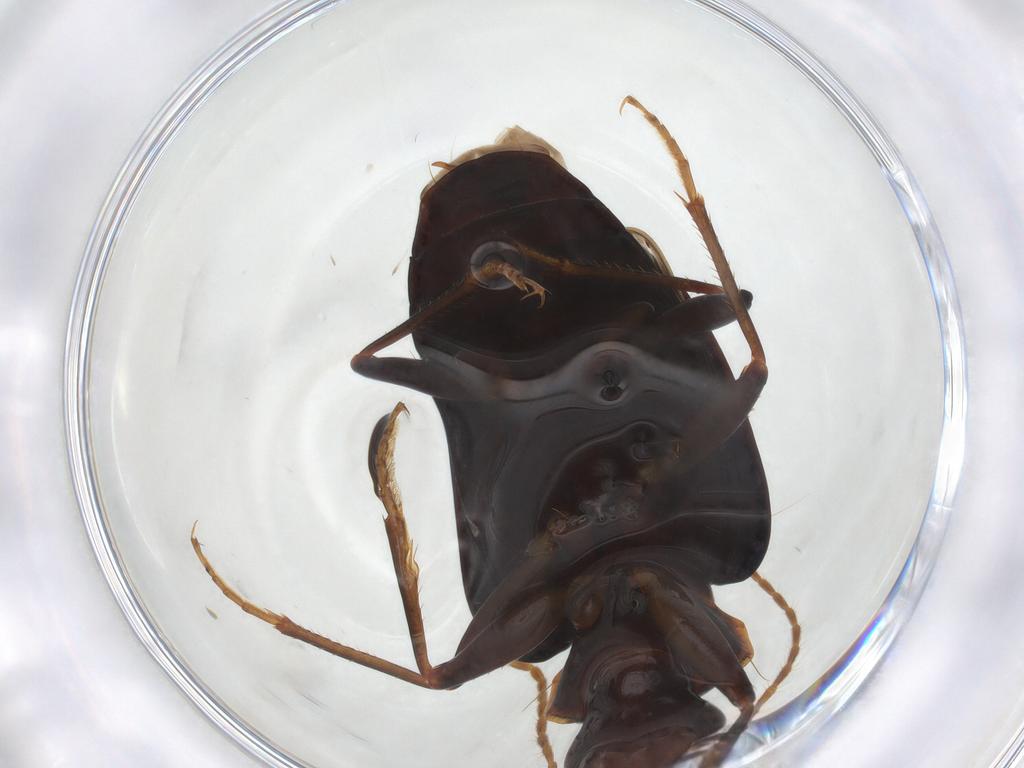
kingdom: Animalia
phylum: Arthropoda
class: Insecta
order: Coleoptera
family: Carabidae
